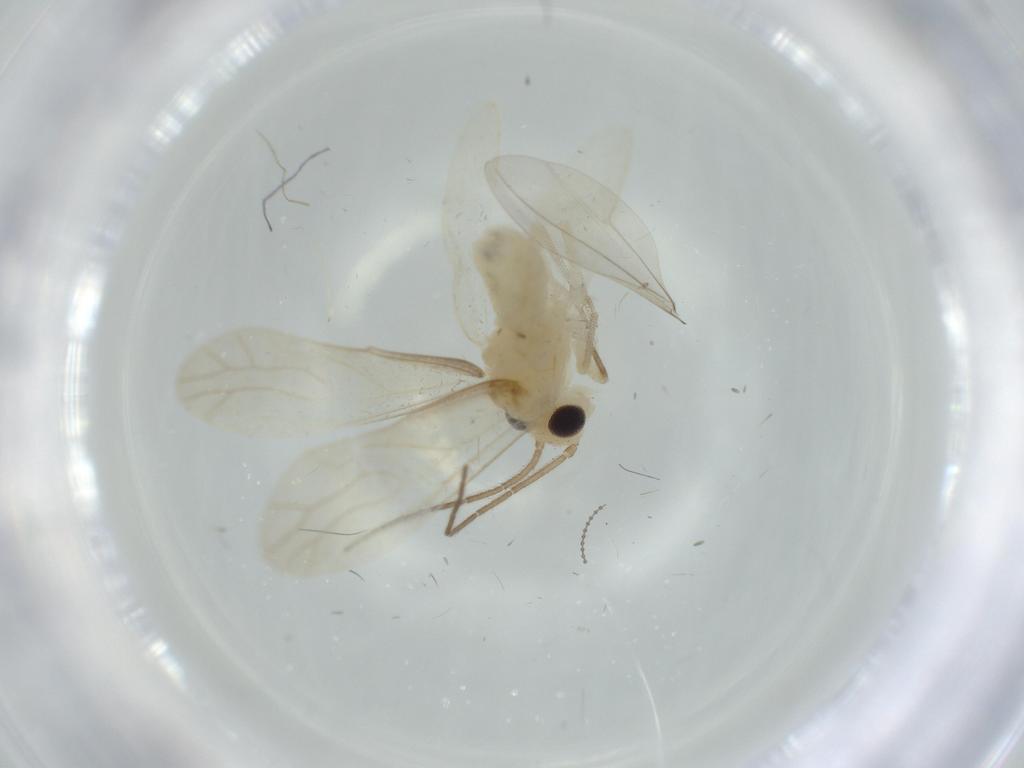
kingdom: Animalia
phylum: Arthropoda
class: Insecta
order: Psocodea
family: Caeciliusidae
